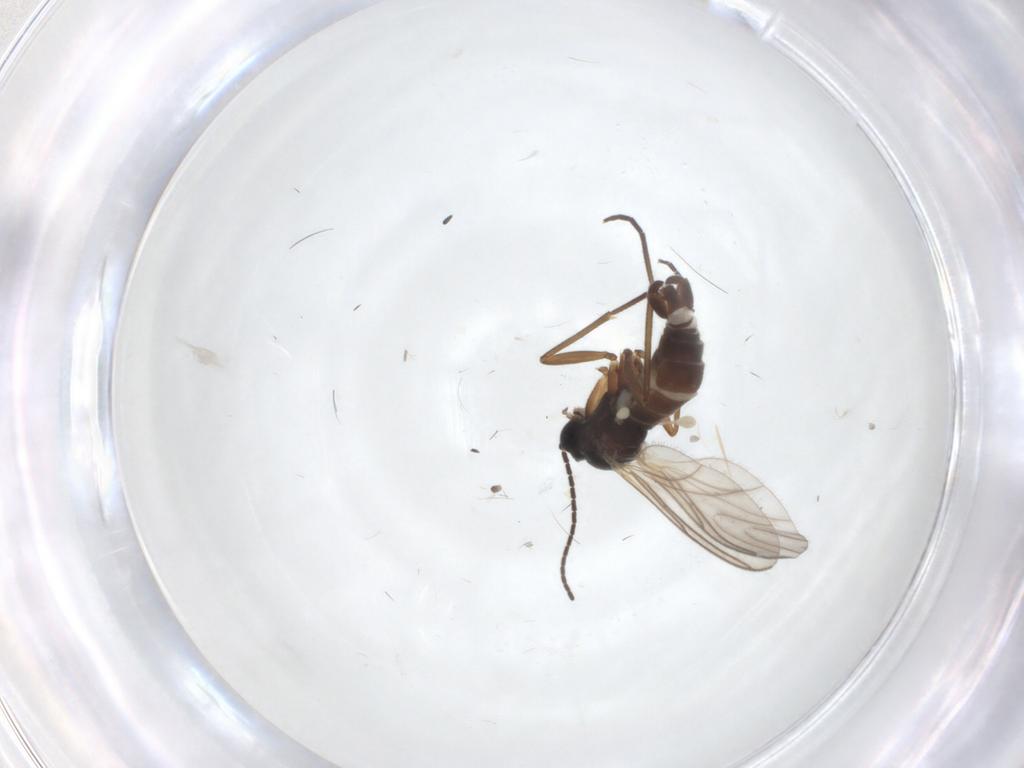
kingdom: Animalia
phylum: Arthropoda
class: Insecta
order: Diptera
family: Sciaridae
